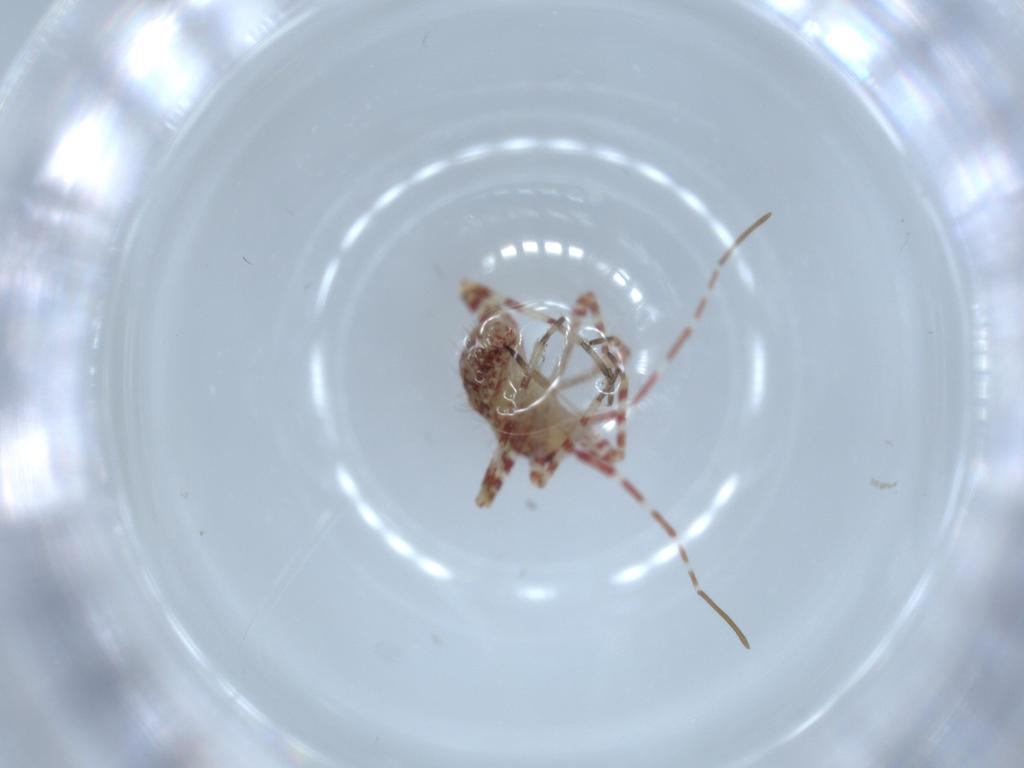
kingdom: Animalia
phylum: Arthropoda
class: Insecta
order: Hemiptera
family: Miridae
